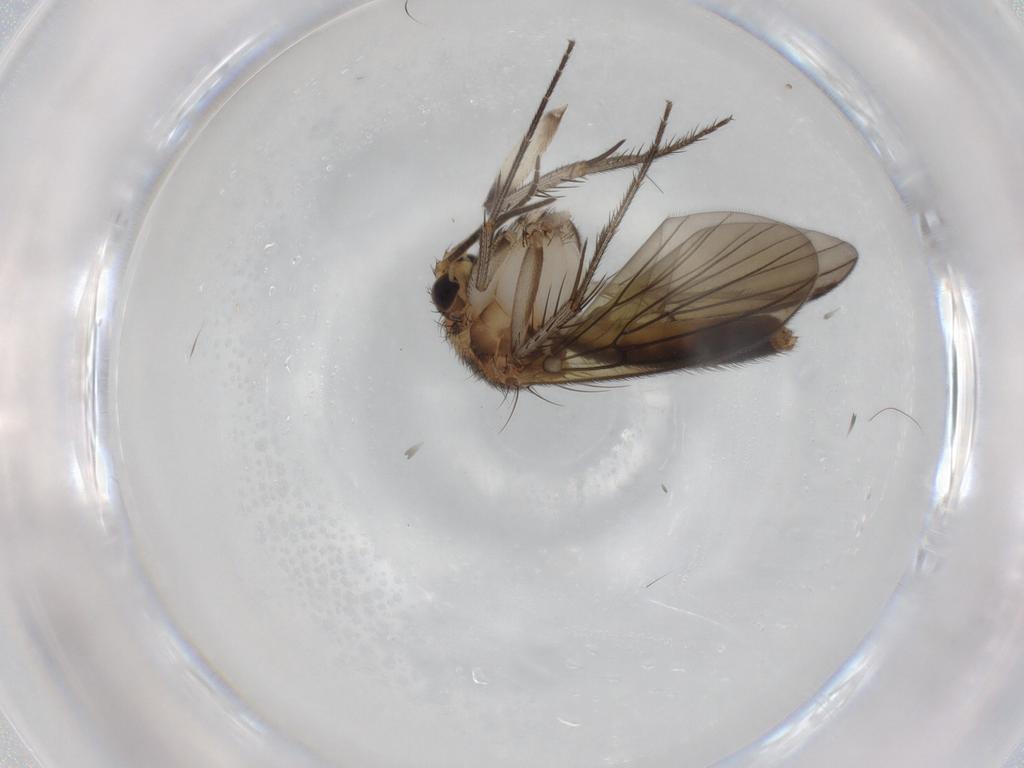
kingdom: Animalia
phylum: Arthropoda
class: Insecta
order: Diptera
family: Mycetophilidae
